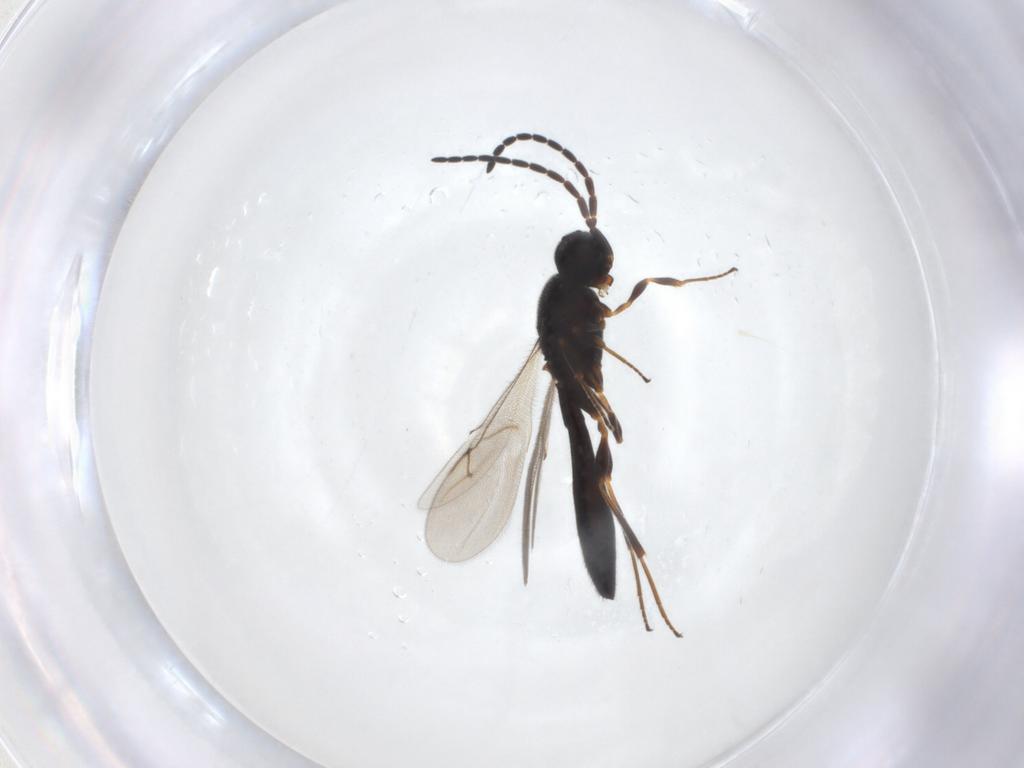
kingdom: Animalia
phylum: Arthropoda
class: Insecta
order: Hymenoptera
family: Scelionidae
